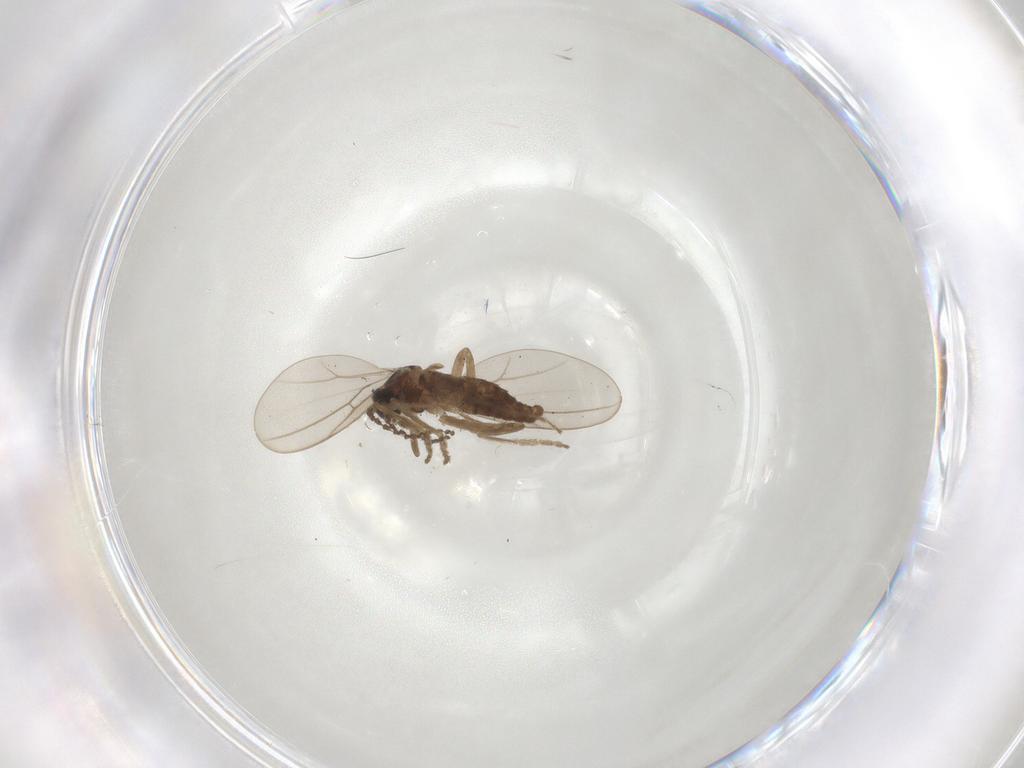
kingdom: Animalia
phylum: Arthropoda
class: Insecta
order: Diptera
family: Cecidomyiidae
